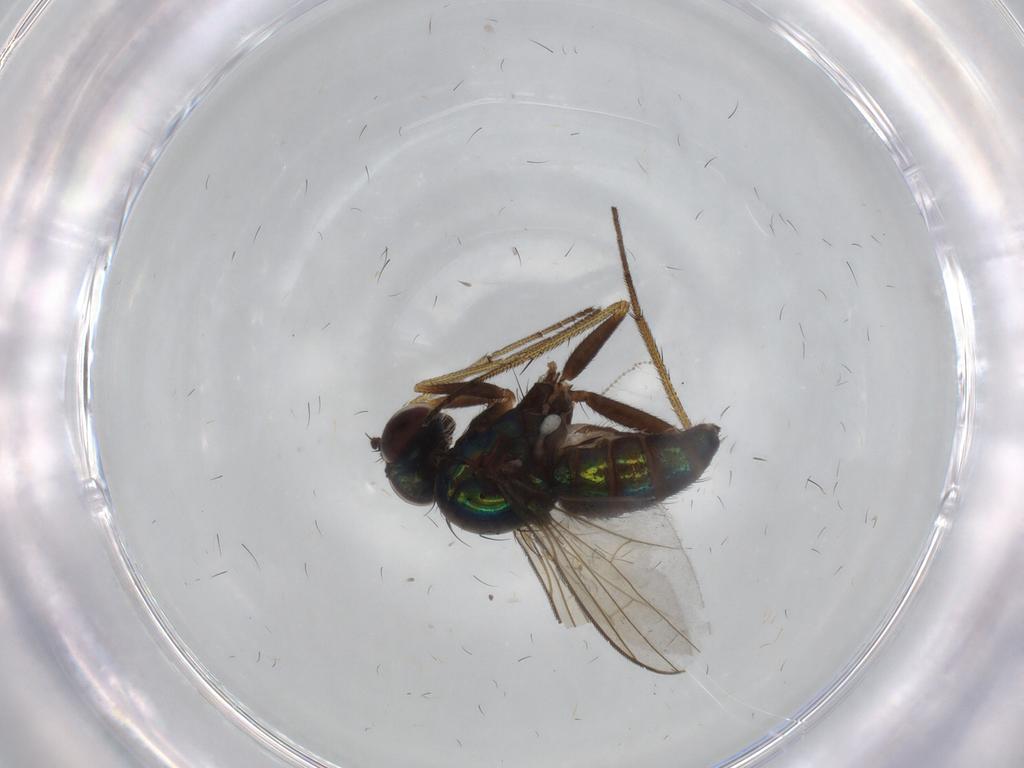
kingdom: Animalia
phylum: Arthropoda
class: Insecta
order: Diptera
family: Dolichopodidae
